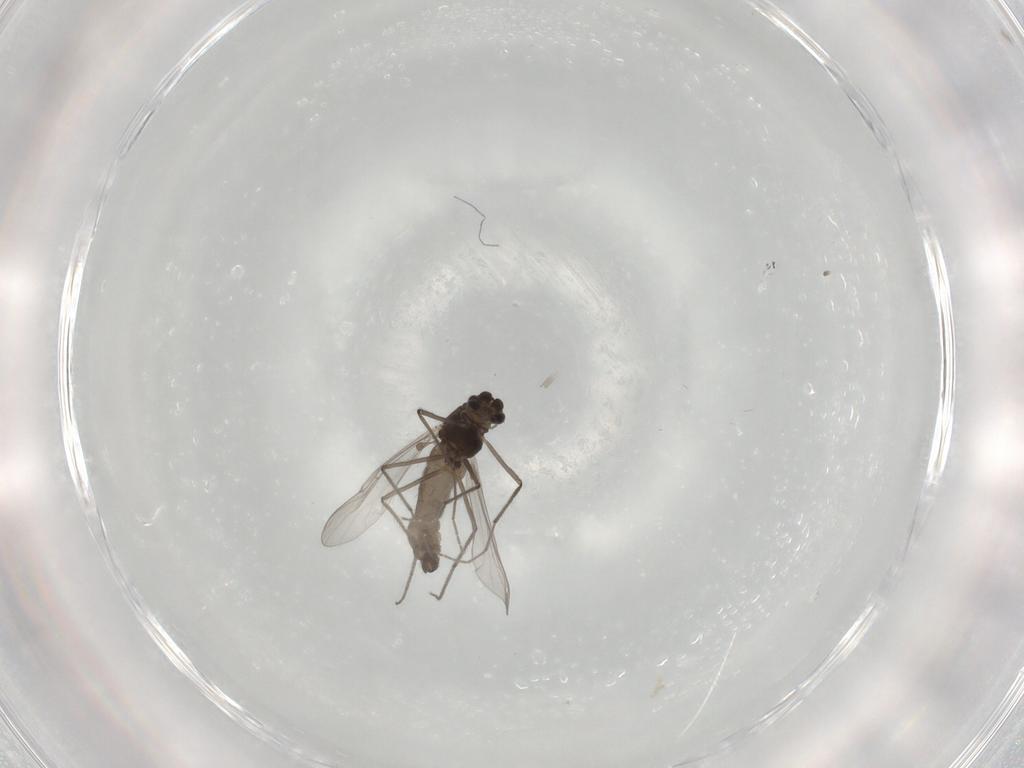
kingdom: Animalia
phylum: Arthropoda
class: Insecta
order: Diptera
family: Chironomidae
